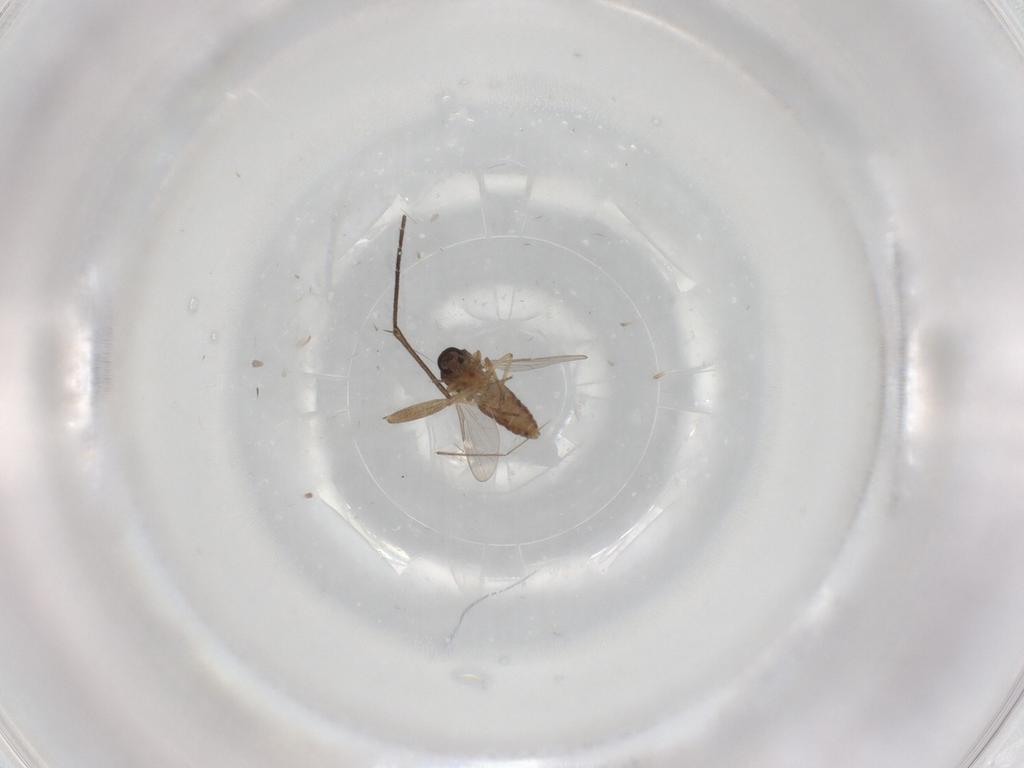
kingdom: Animalia
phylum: Arthropoda
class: Insecta
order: Diptera
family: Sciaridae
